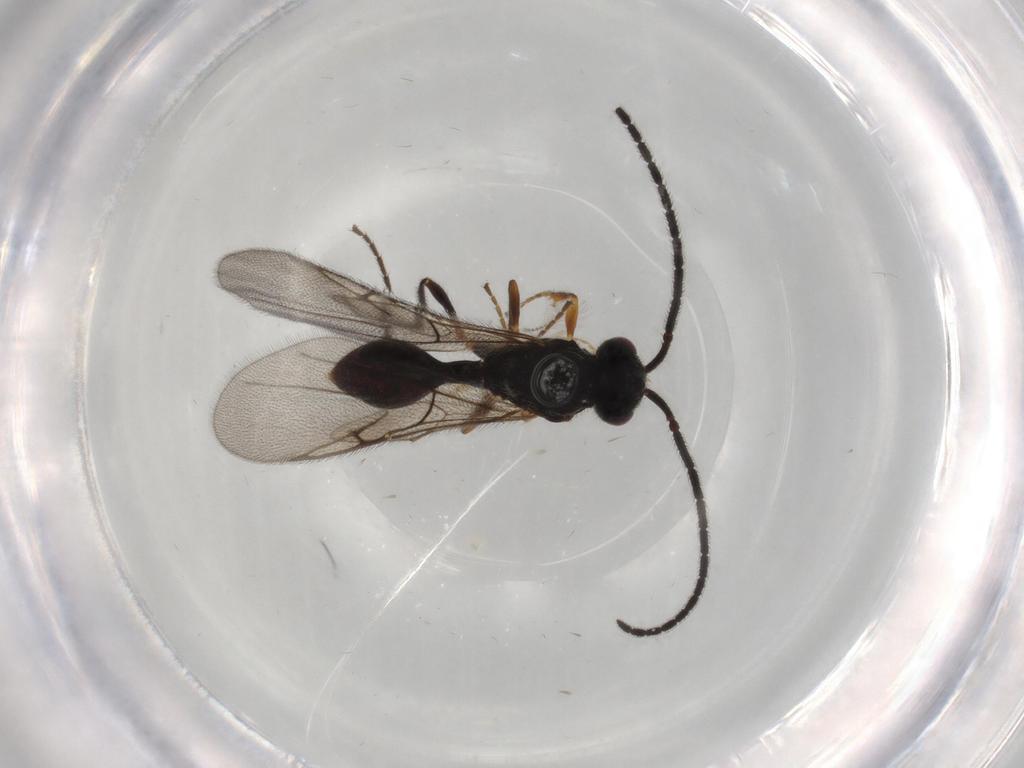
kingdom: Animalia
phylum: Arthropoda
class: Insecta
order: Hymenoptera
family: Diapriidae
